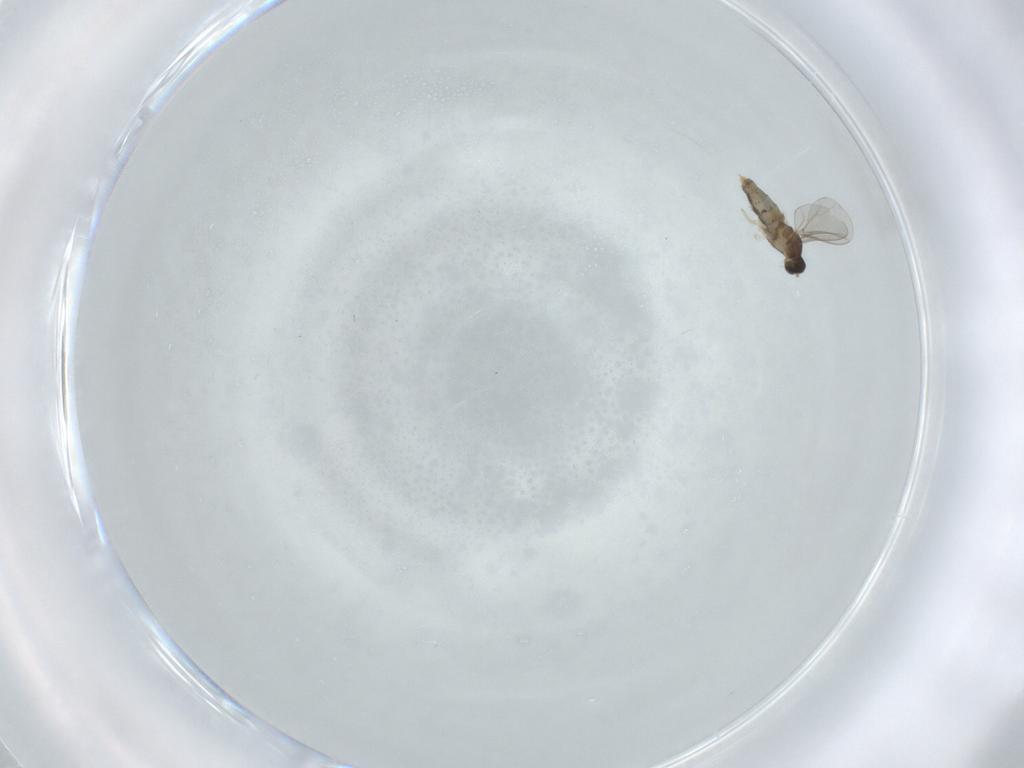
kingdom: Animalia
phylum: Arthropoda
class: Insecta
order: Diptera
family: Cecidomyiidae
